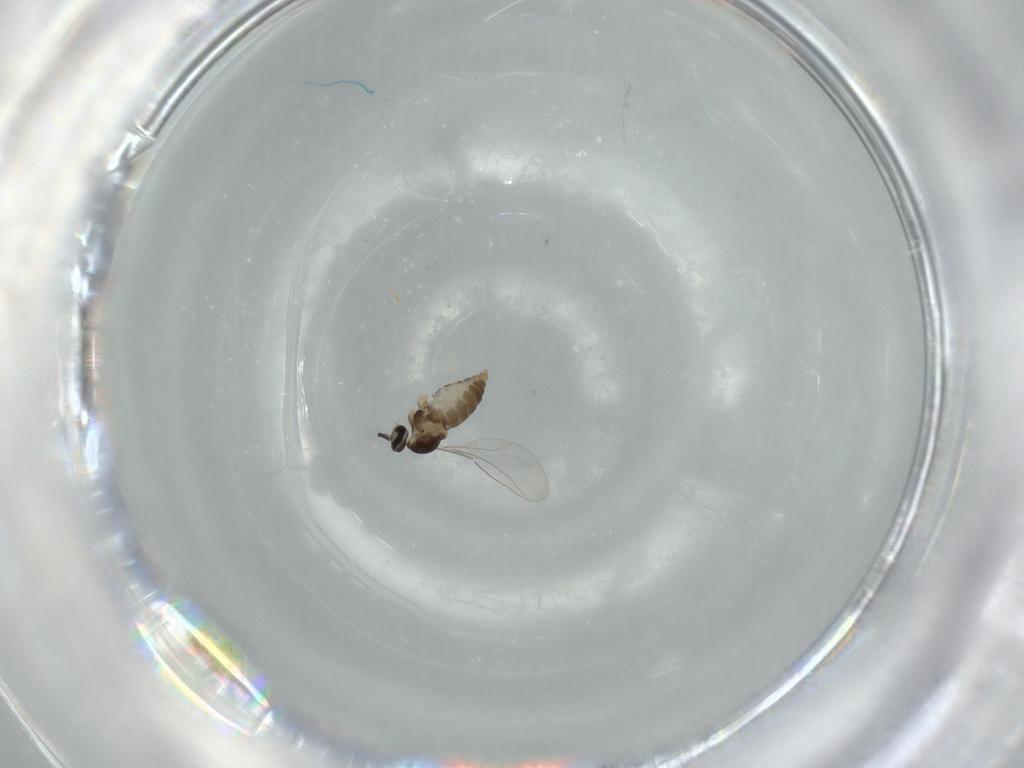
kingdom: Animalia
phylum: Arthropoda
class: Insecta
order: Diptera
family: Cecidomyiidae
